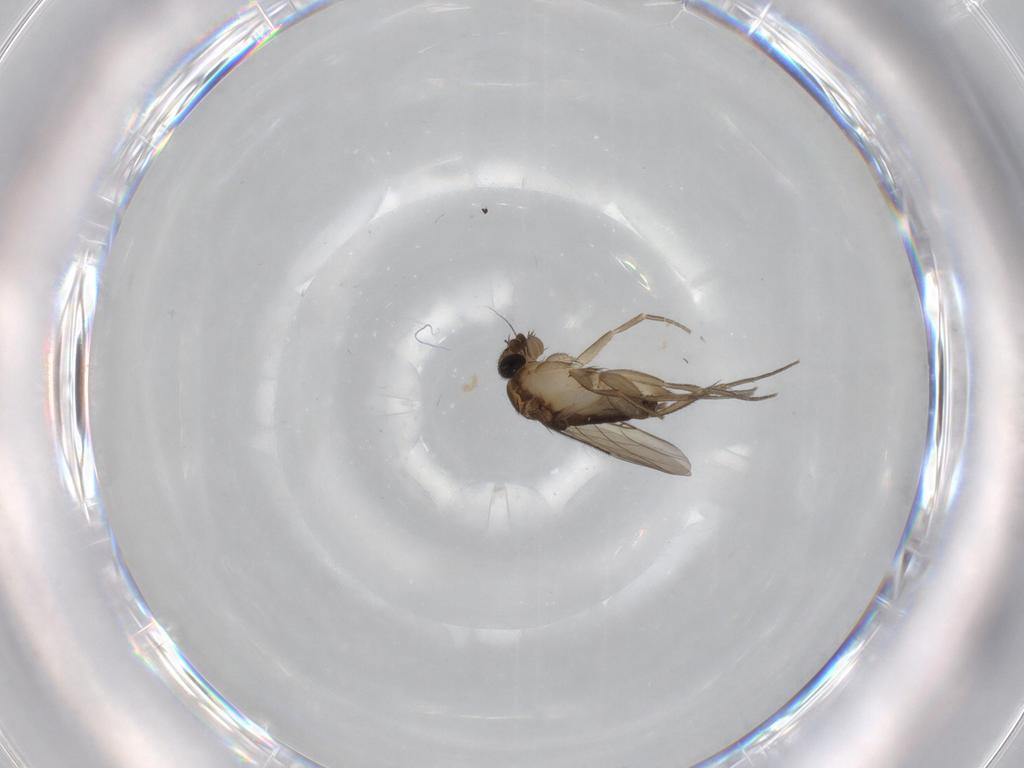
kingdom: Animalia
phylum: Arthropoda
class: Insecta
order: Diptera
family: Phoridae
